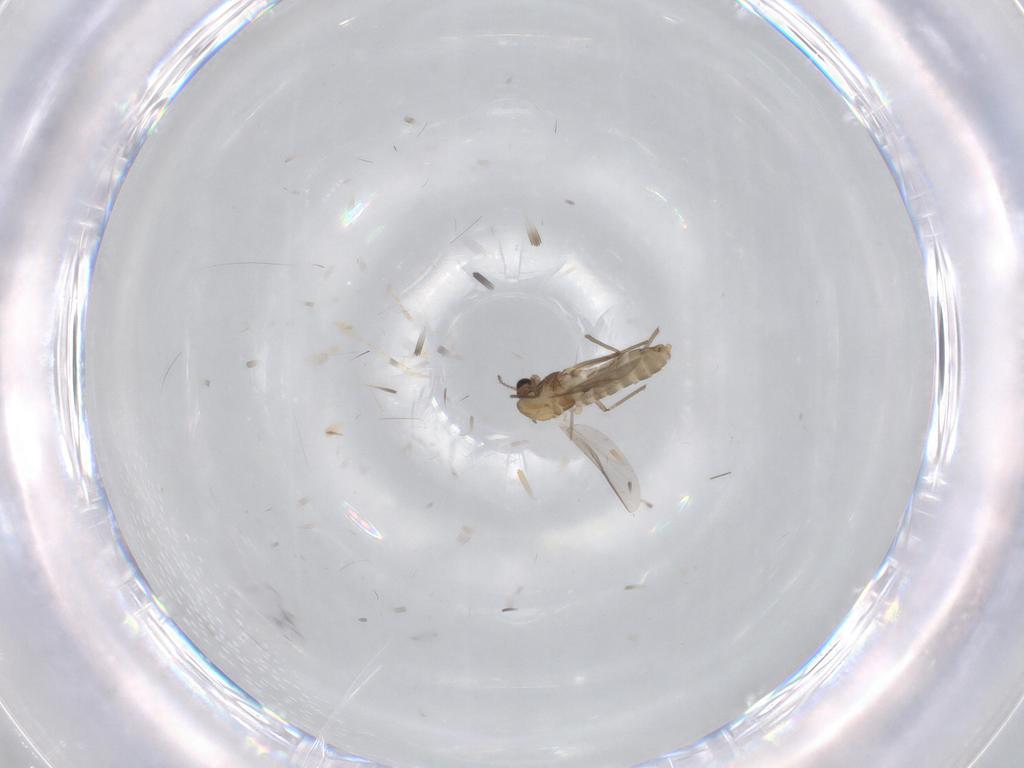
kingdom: Animalia
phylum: Arthropoda
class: Insecta
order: Diptera
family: Chironomidae
